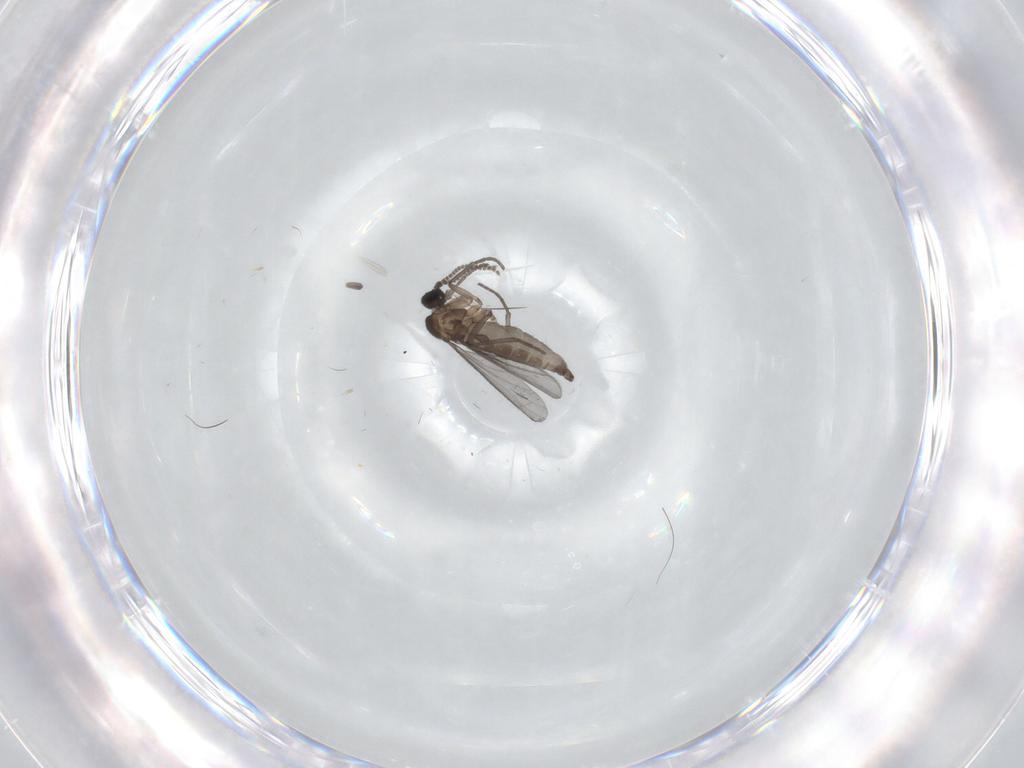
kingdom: Animalia
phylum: Arthropoda
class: Insecta
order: Diptera
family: Sciaridae
